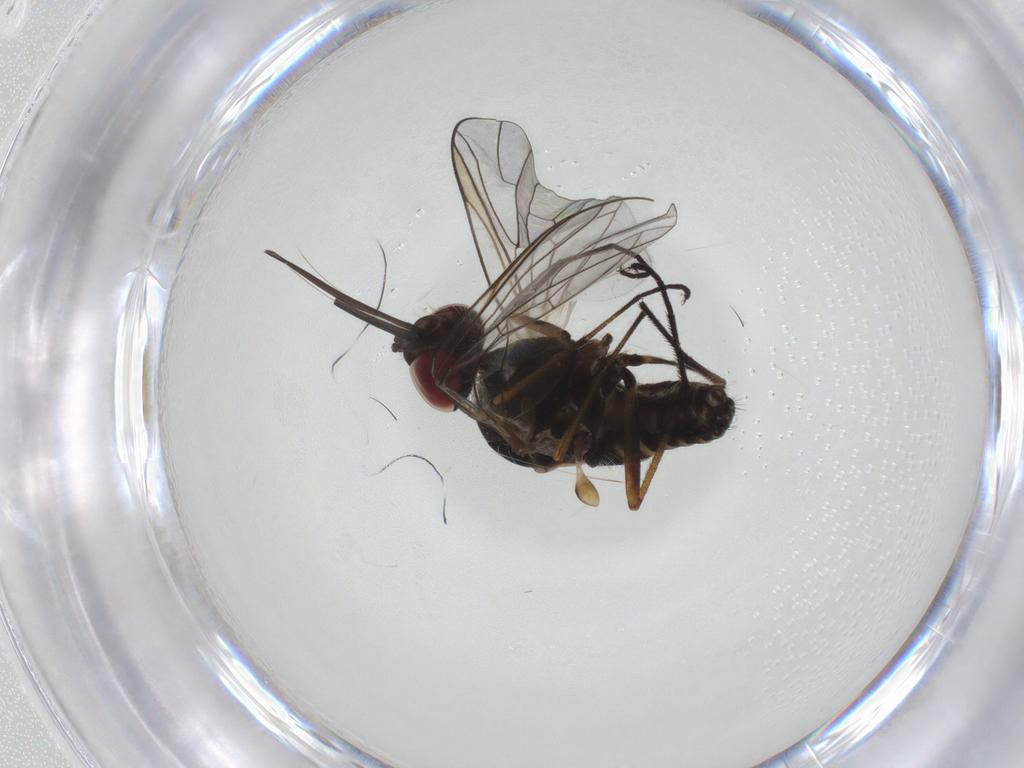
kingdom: Animalia
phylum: Arthropoda
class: Insecta
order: Diptera
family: Bombyliidae
